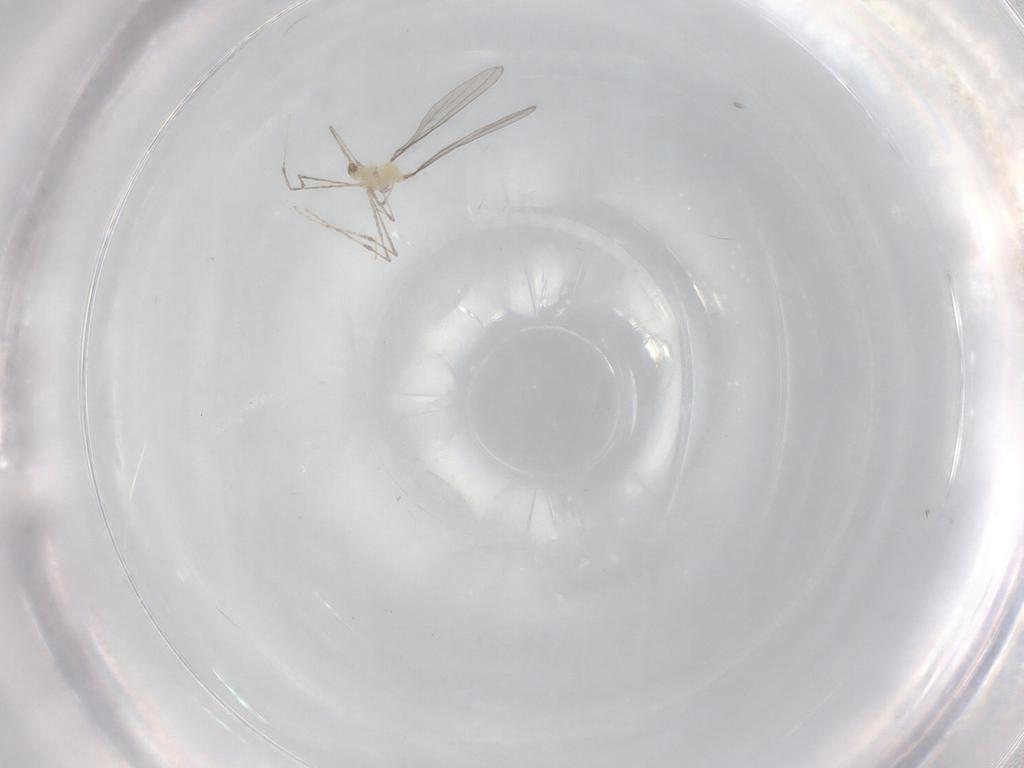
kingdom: Animalia
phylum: Arthropoda
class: Insecta
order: Diptera
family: Cecidomyiidae
